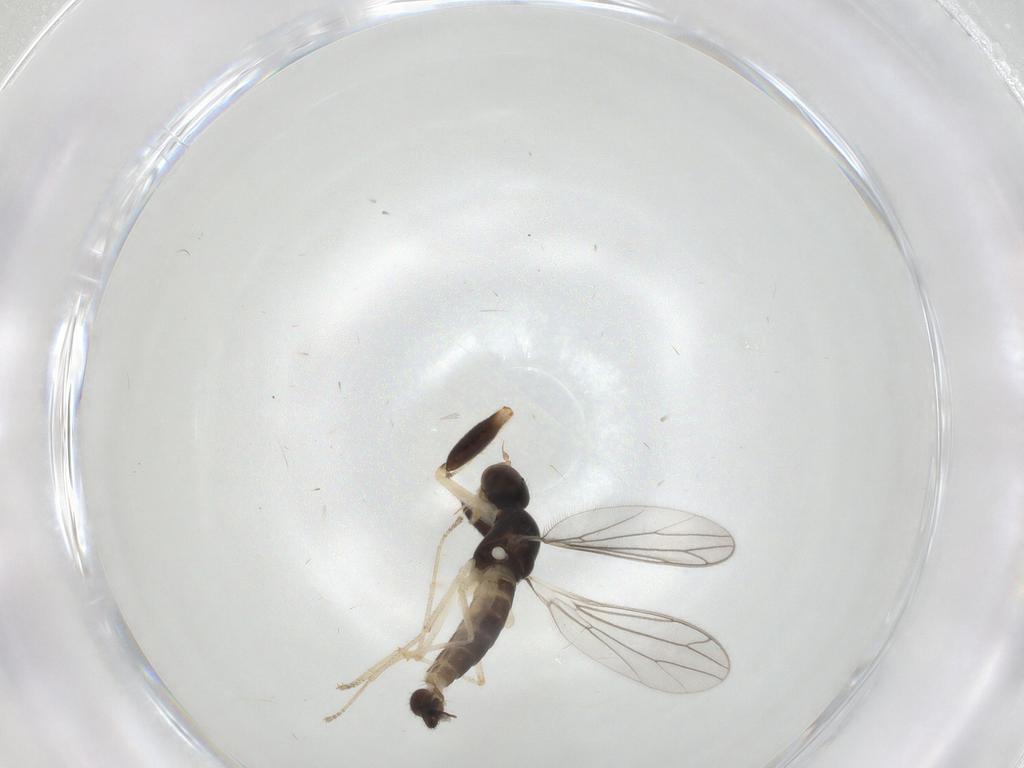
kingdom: Animalia
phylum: Arthropoda
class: Insecta
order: Diptera
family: Empididae
